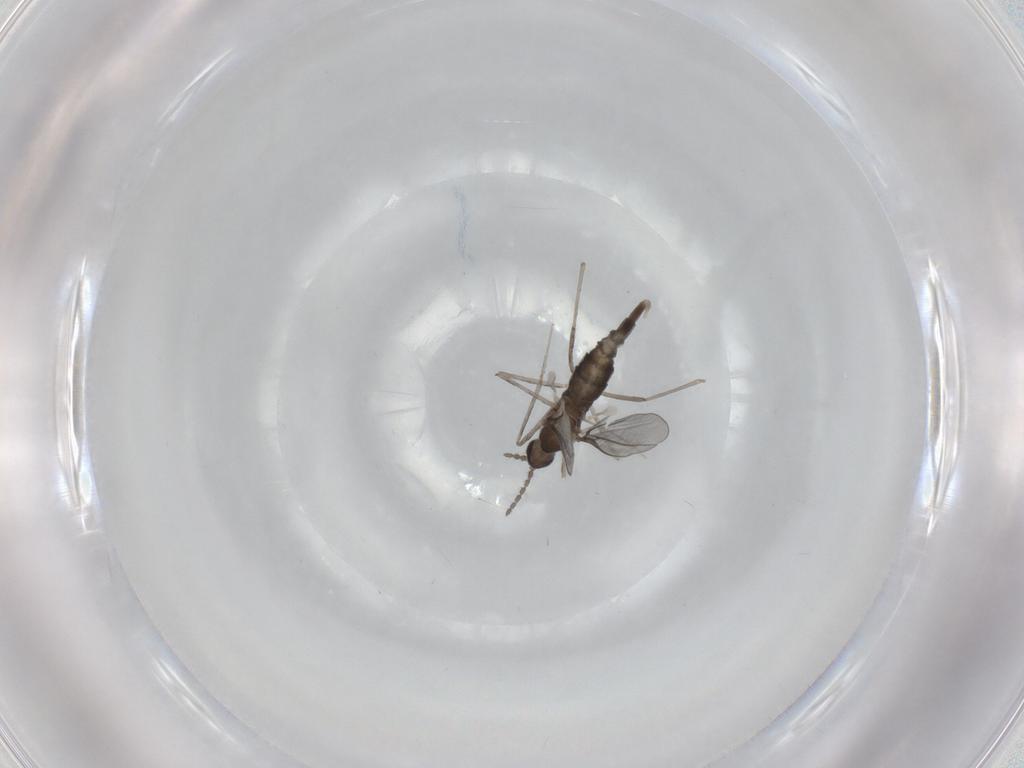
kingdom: Animalia
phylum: Arthropoda
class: Insecta
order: Diptera
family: Cecidomyiidae
